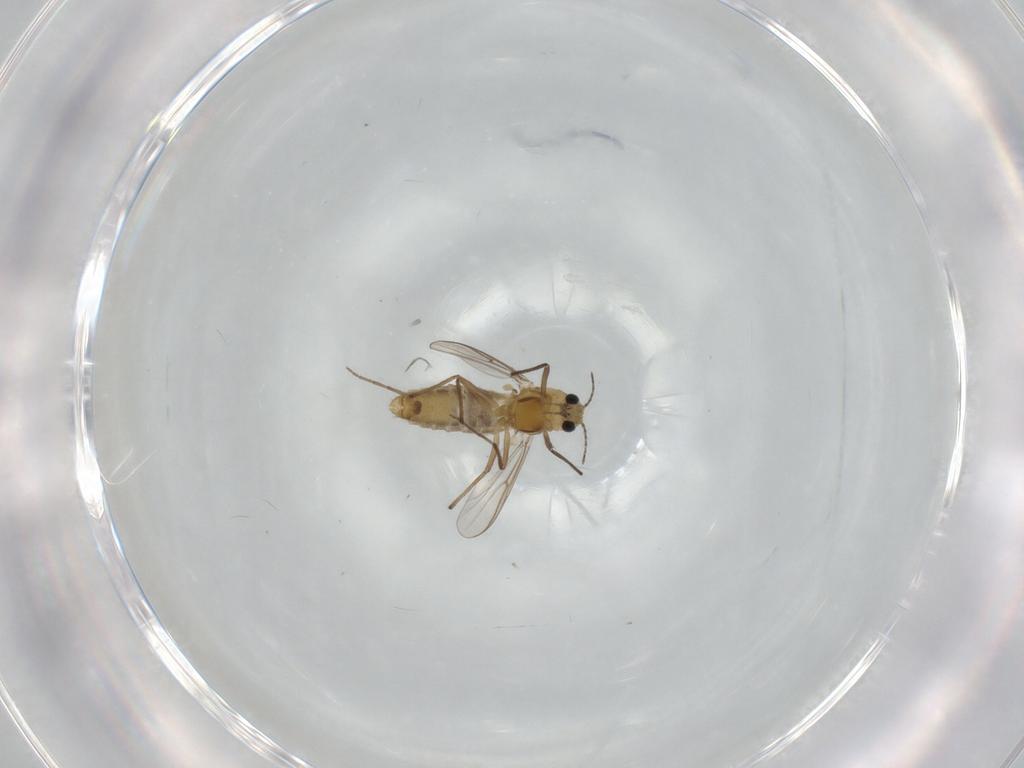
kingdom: Animalia
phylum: Arthropoda
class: Insecta
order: Diptera
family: Chironomidae
